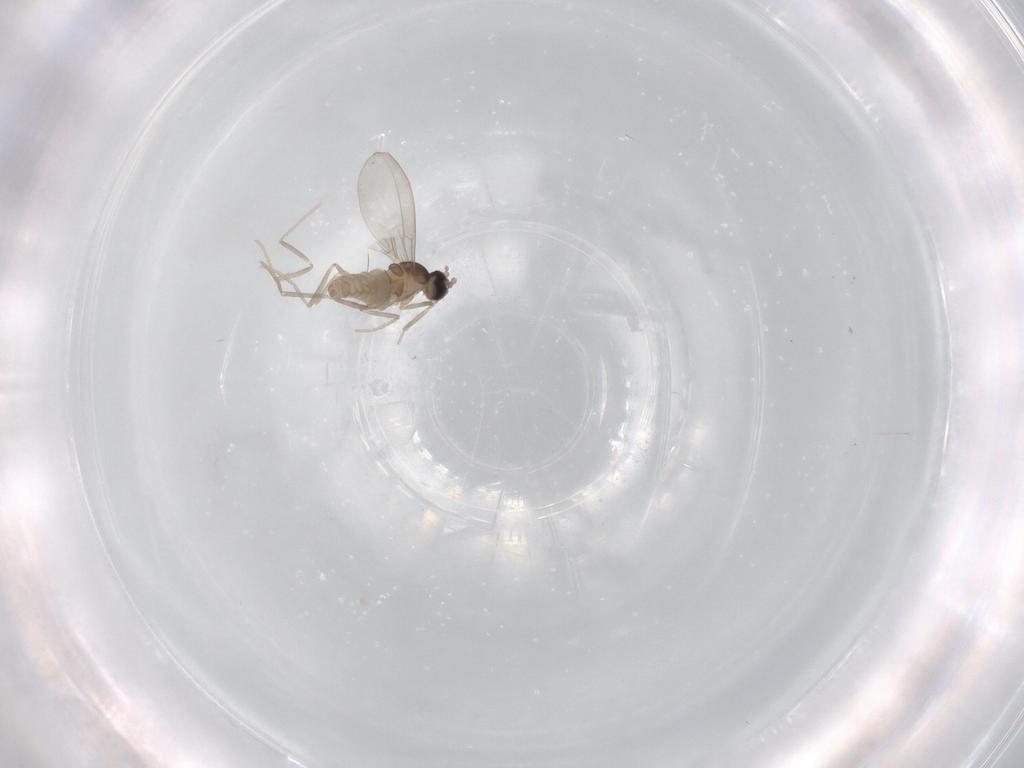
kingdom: Animalia
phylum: Arthropoda
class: Insecta
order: Diptera
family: Cecidomyiidae
